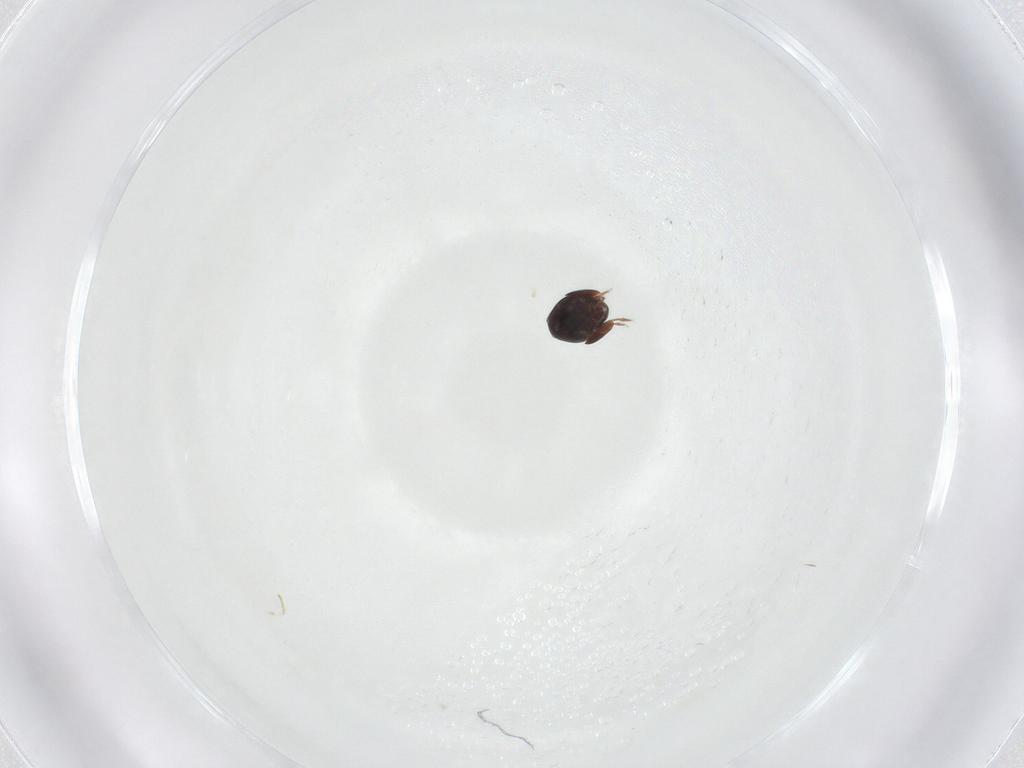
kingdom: Animalia
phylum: Arthropoda
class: Arachnida
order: Sarcoptiformes
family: Galumnidae
